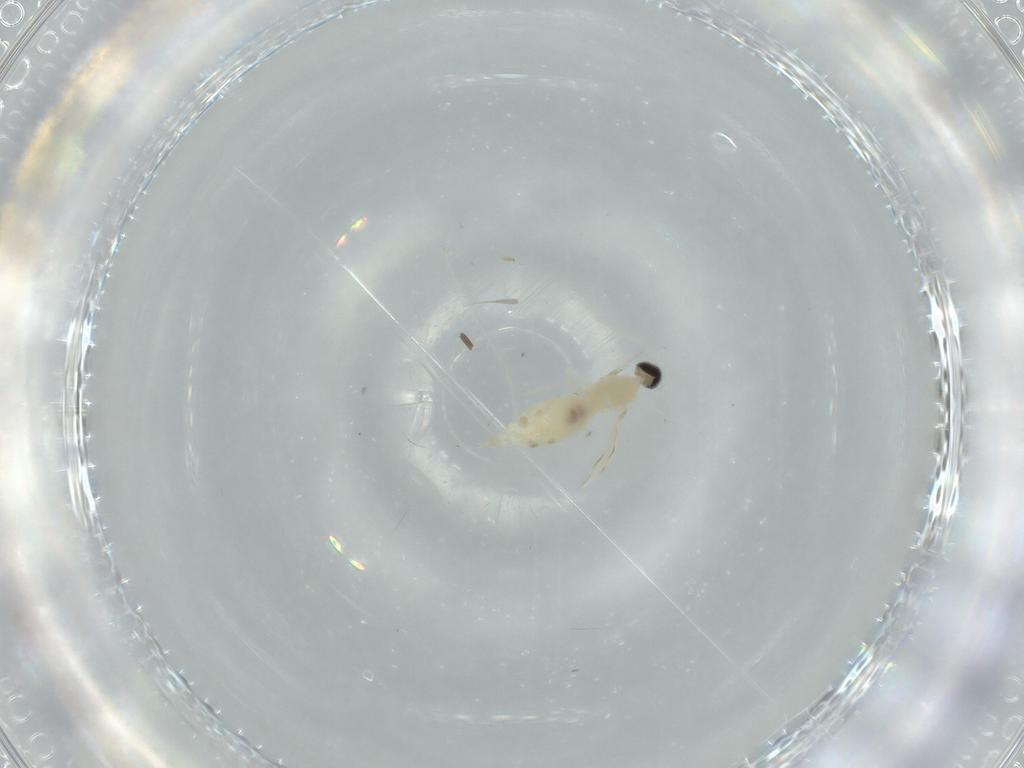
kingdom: Animalia
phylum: Arthropoda
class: Insecta
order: Diptera
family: Cecidomyiidae
